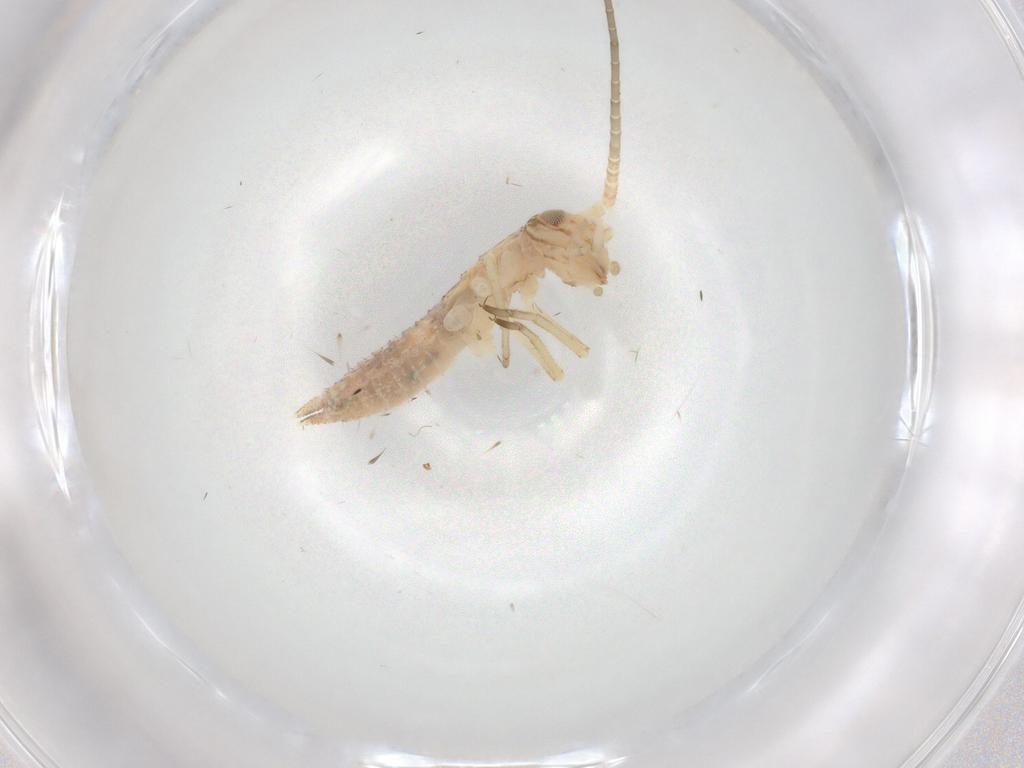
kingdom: Animalia
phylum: Arthropoda
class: Insecta
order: Orthoptera
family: Oecanthidae
